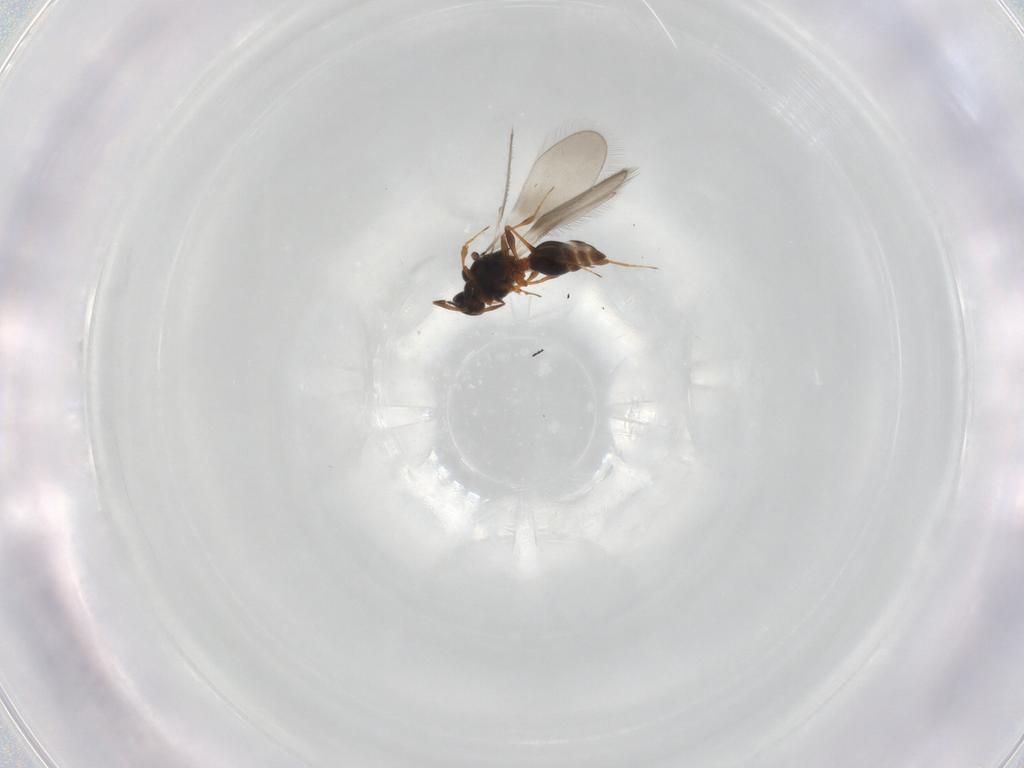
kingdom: Animalia
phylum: Arthropoda
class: Insecta
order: Hymenoptera
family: Platygastridae
